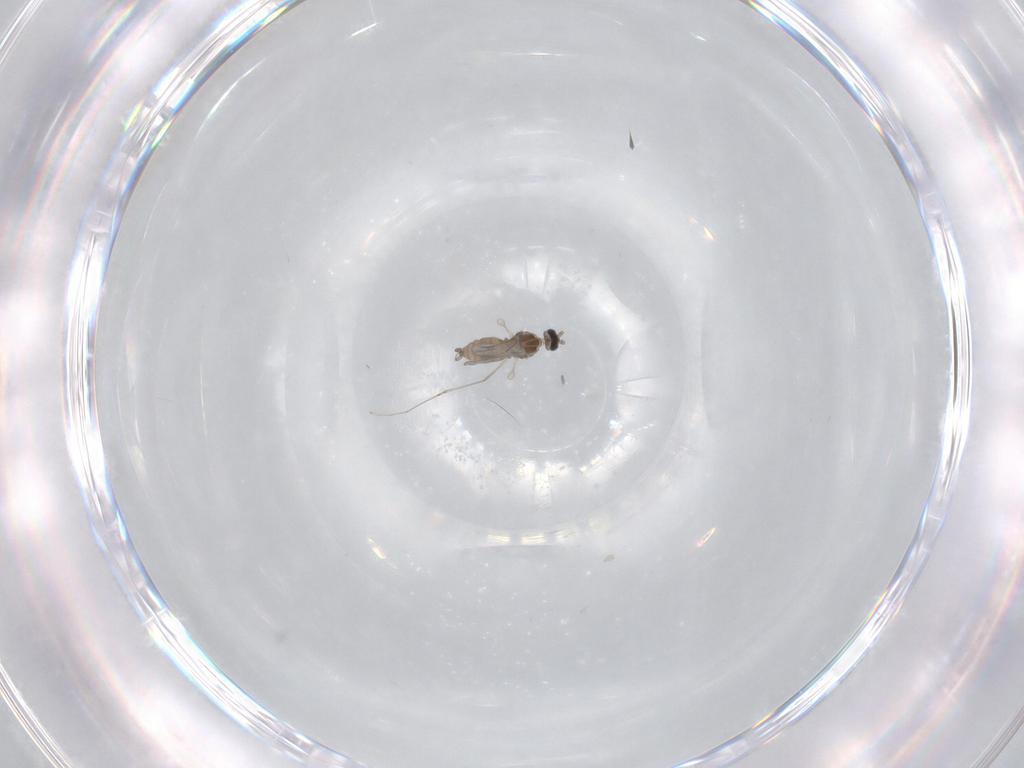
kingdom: Animalia
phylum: Arthropoda
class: Insecta
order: Diptera
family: Cecidomyiidae
